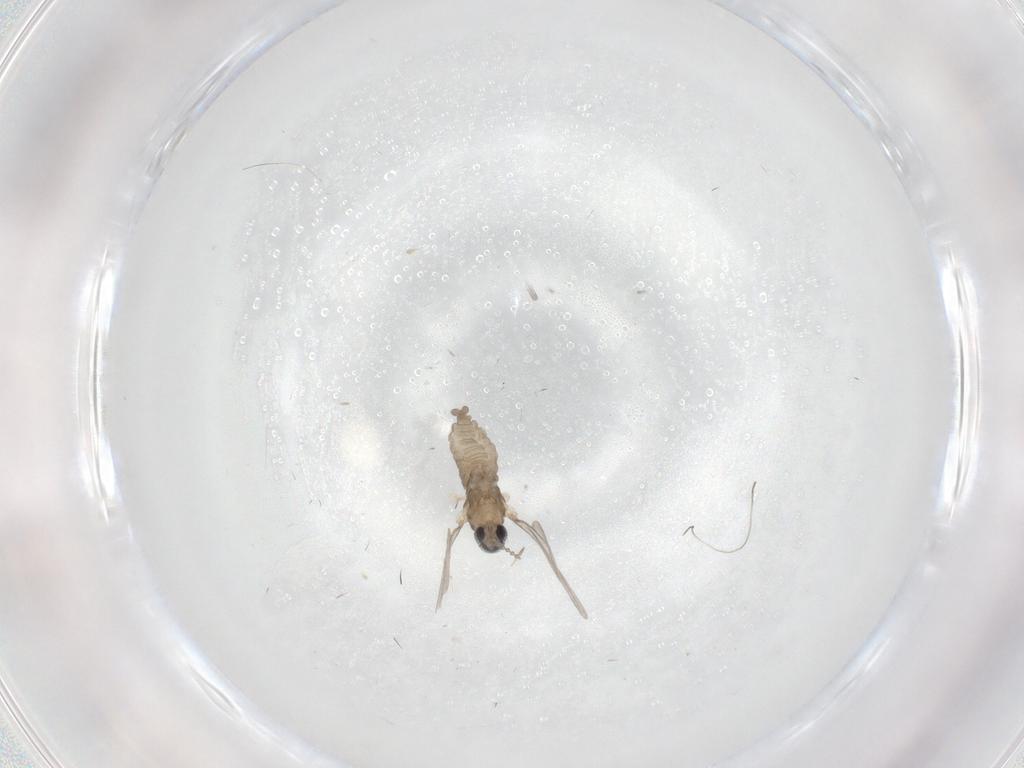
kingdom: Animalia
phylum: Arthropoda
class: Insecta
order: Diptera
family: Cecidomyiidae
